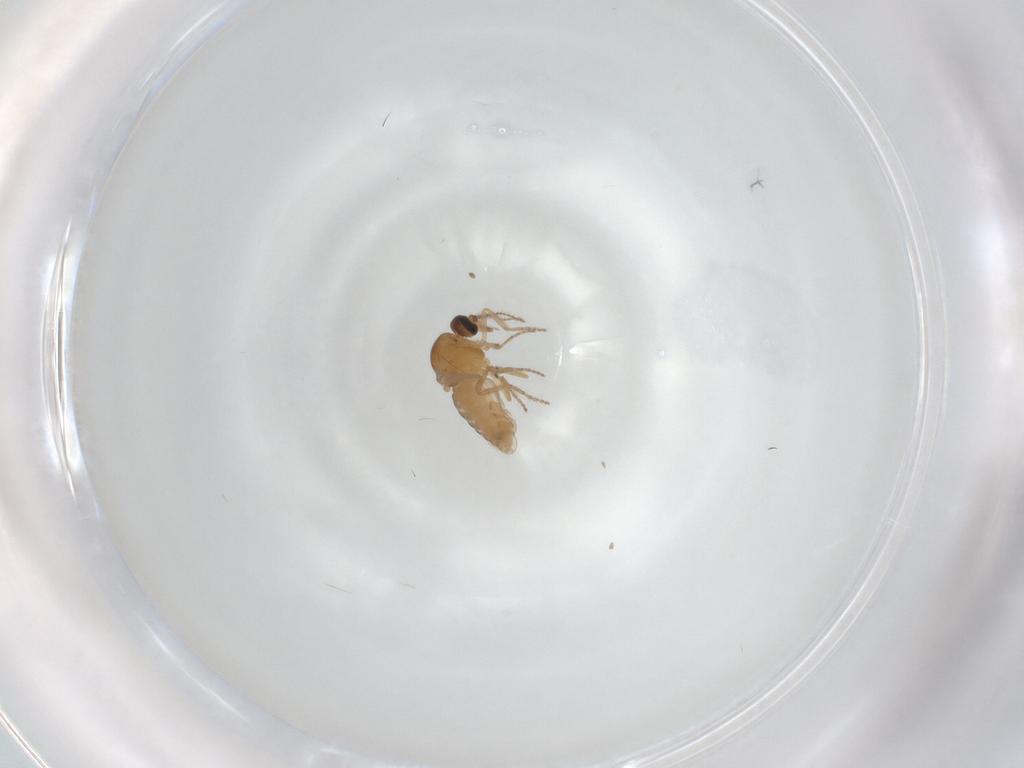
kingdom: Animalia
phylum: Arthropoda
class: Insecta
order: Diptera
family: Ceratopogonidae
